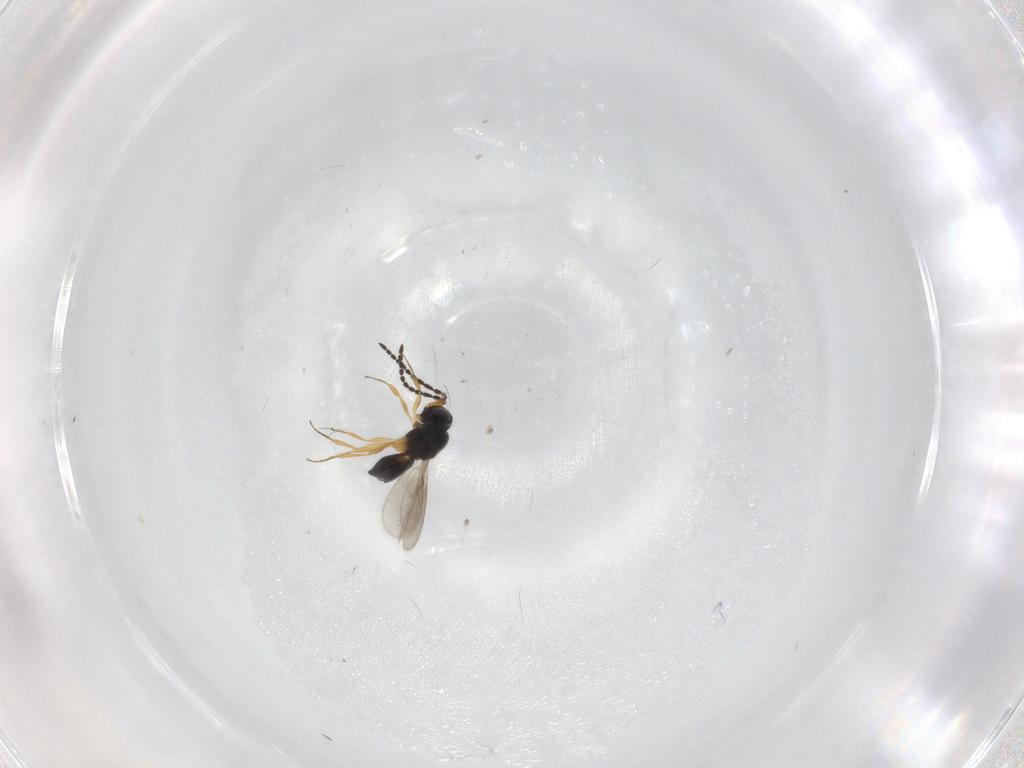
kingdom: Animalia
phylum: Arthropoda
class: Insecta
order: Hymenoptera
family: Scelionidae
